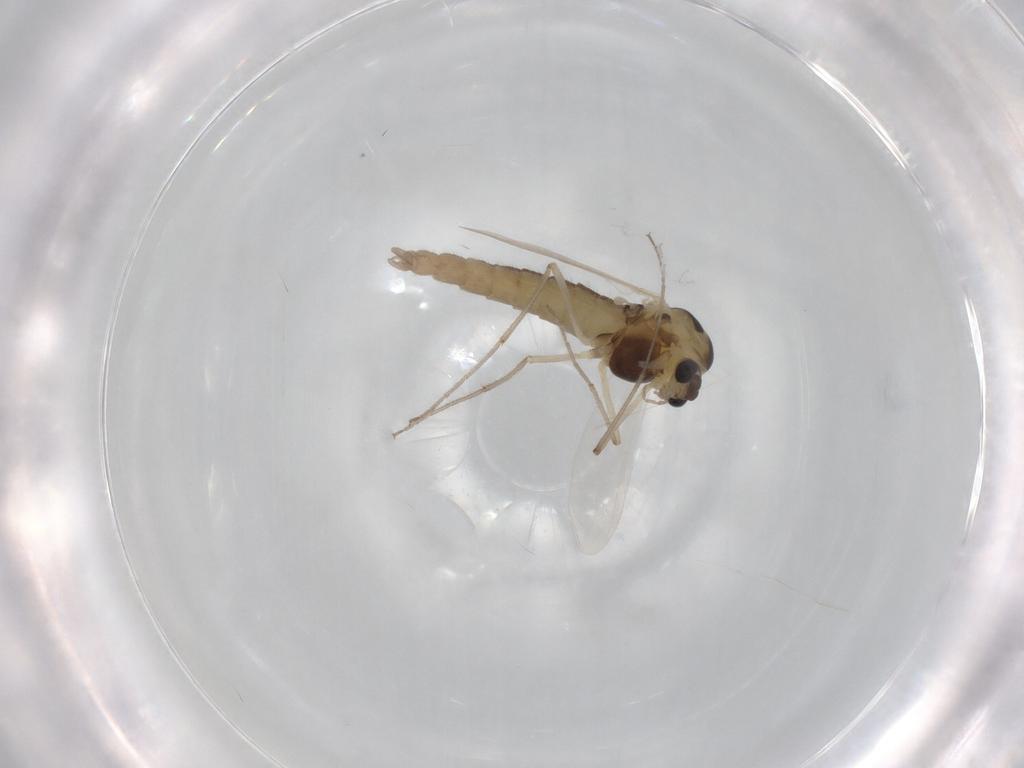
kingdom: Animalia
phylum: Arthropoda
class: Insecta
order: Diptera
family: Chironomidae
